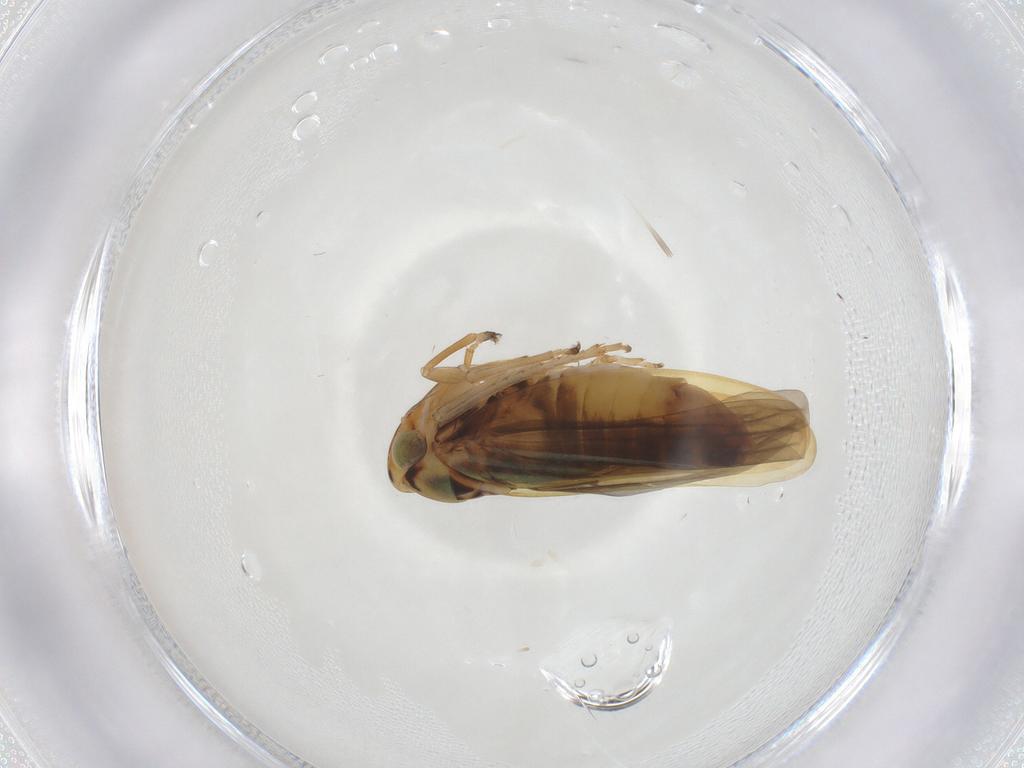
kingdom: Animalia
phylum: Arthropoda
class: Insecta
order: Hemiptera
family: Cicadellidae
